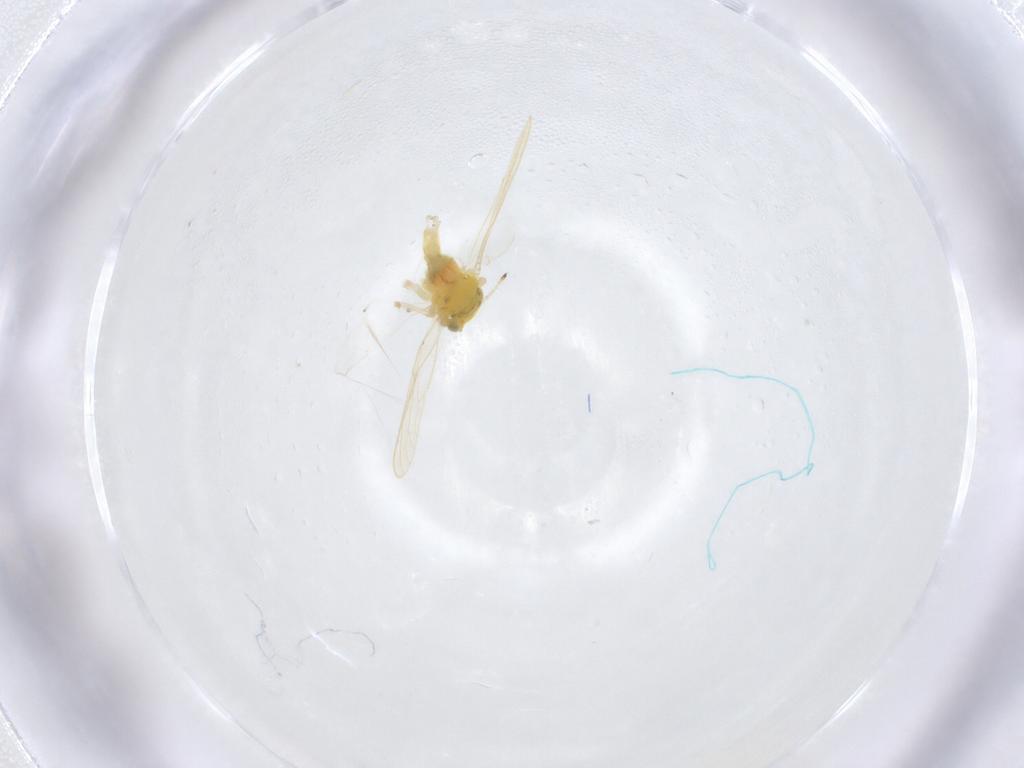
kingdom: Animalia
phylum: Arthropoda
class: Insecta
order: Hemiptera
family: Aphalaridae
